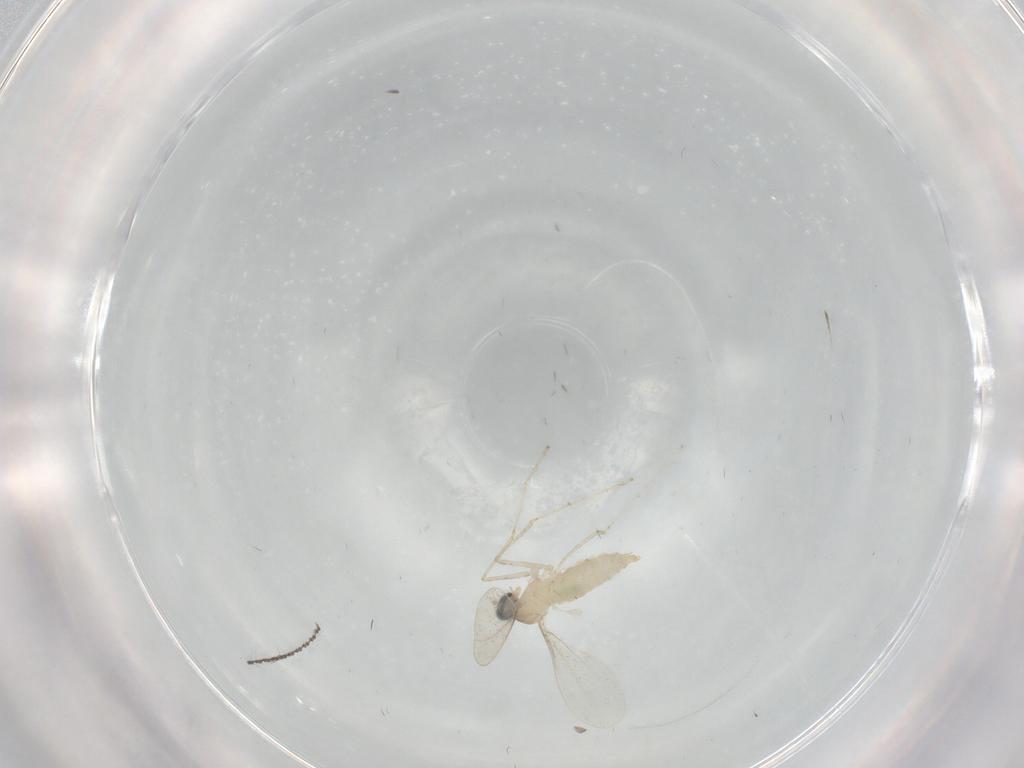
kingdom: Animalia
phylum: Arthropoda
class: Insecta
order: Diptera
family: Cecidomyiidae
